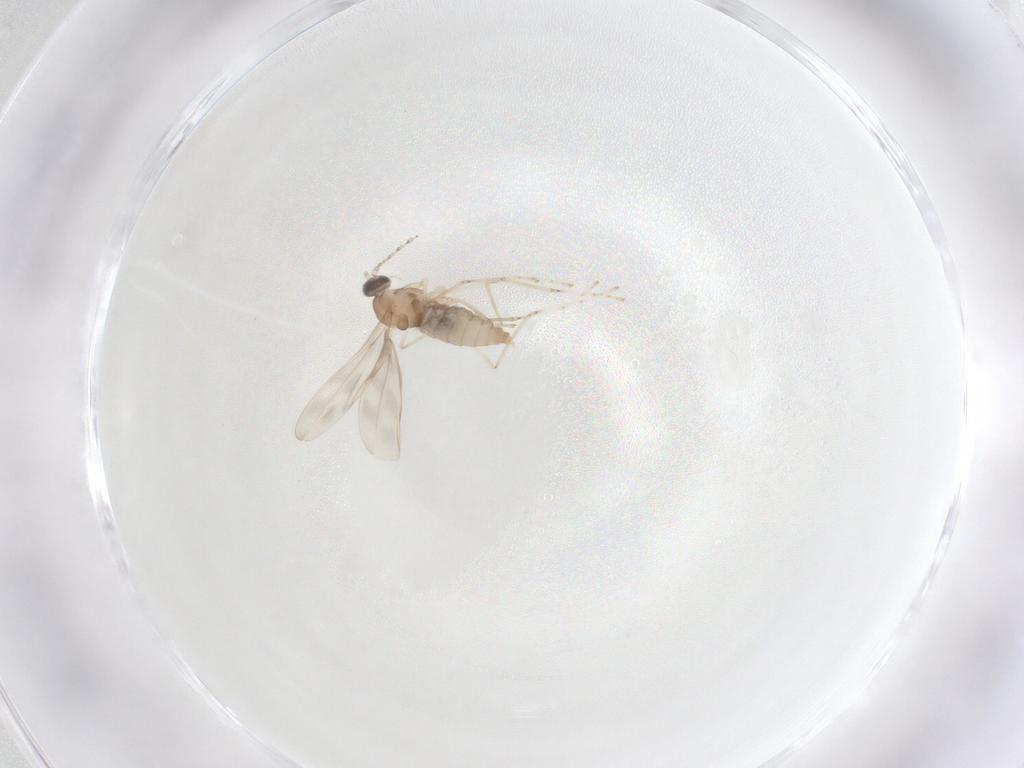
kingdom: Animalia
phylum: Arthropoda
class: Insecta
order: Diptera
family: Cecidomyiidae
